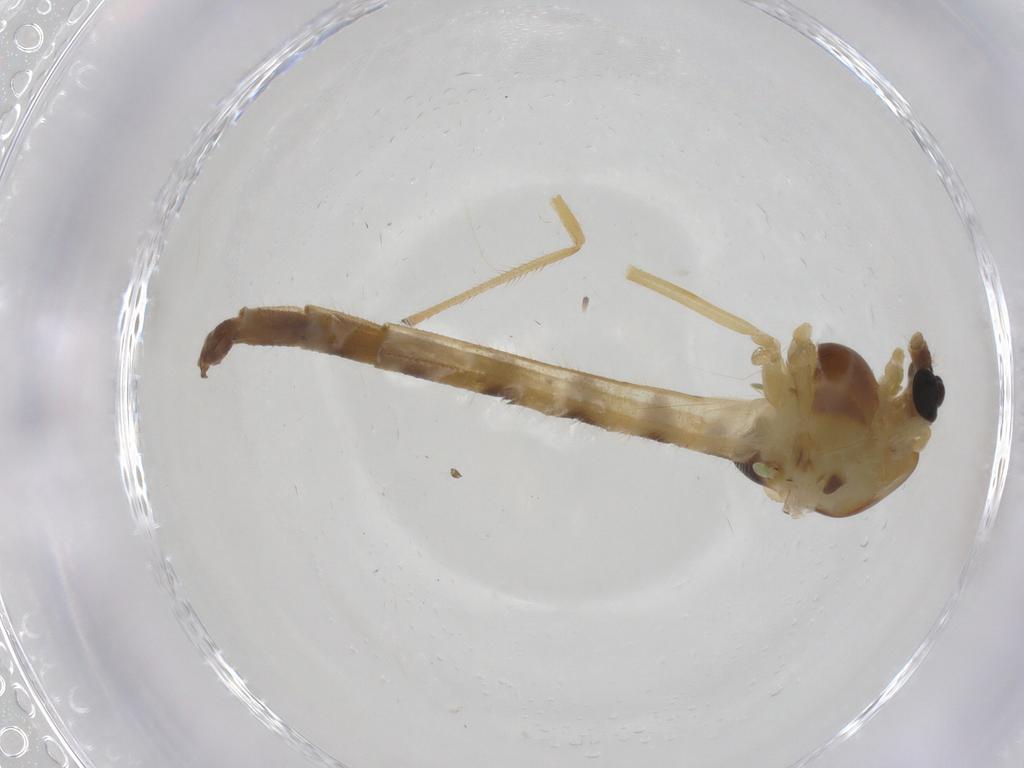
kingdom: Animalia
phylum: Arthropoda
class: Insecta
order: Diptera
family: Chironomidae
